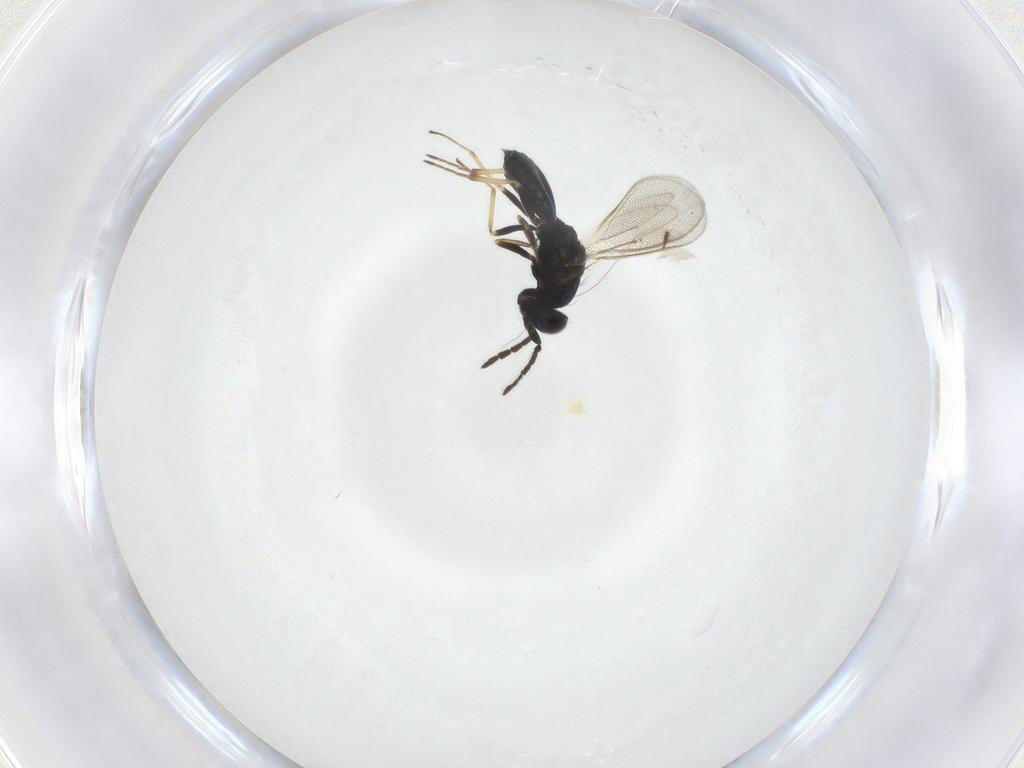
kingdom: Animalia
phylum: Arthropoda
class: Insecta
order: Hymenoptera
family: Eulophidae
